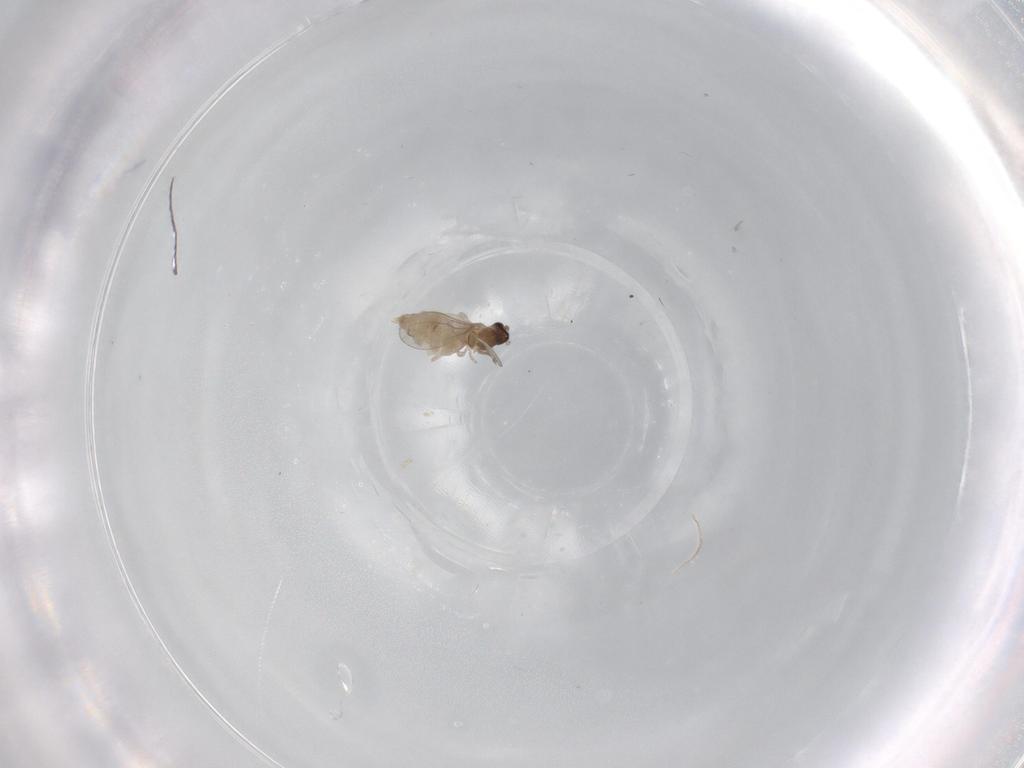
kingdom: Animalia
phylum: Arthropoda
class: Insecta
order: Diptera
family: Cecidomyiidae
